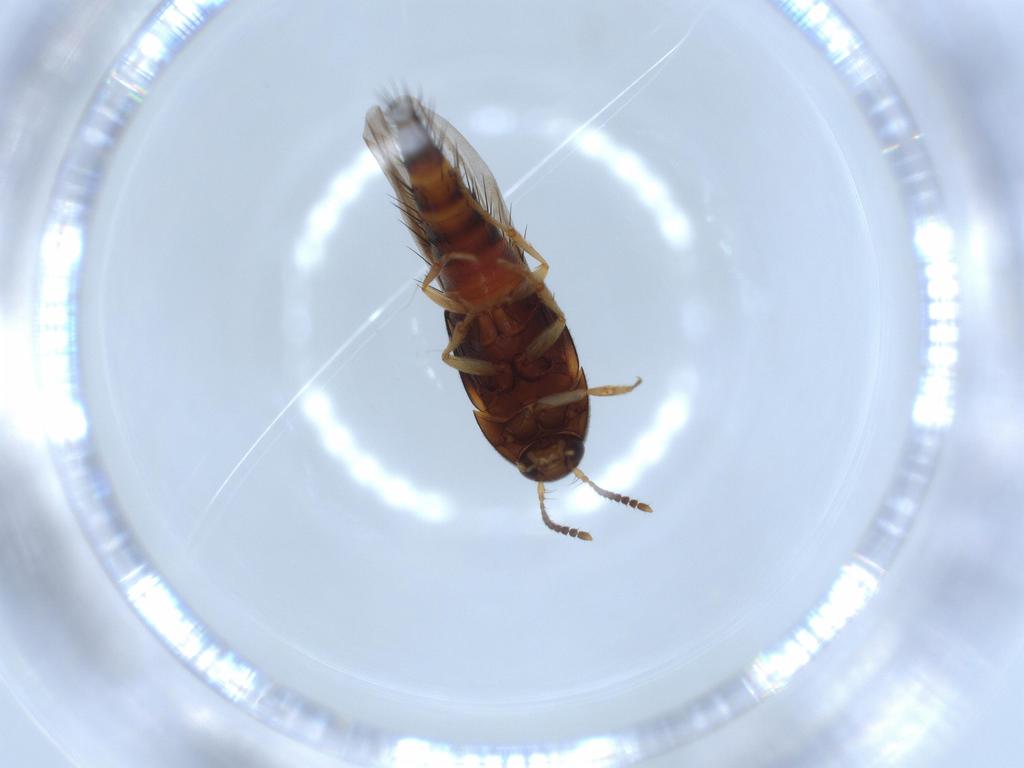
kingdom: Animalia
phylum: Arthropoda
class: Insecta
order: Coleoptera
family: Staphylinidae
